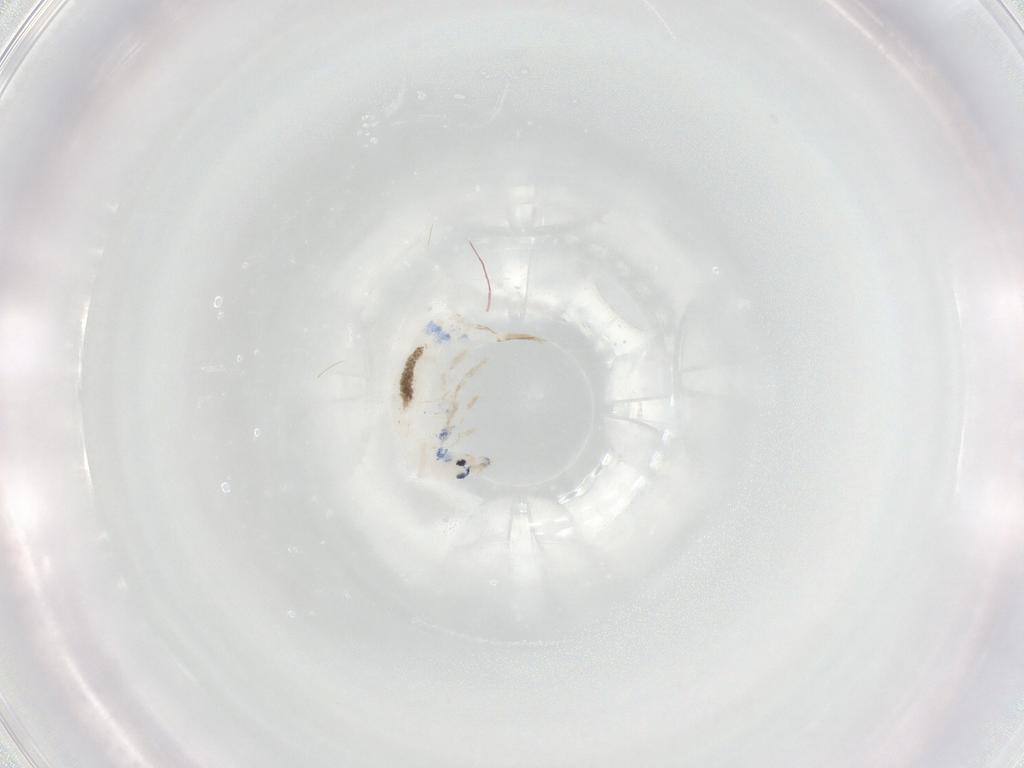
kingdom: Animalia
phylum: Arthropoda
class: Collembola
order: Entomobryomorpha
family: Entomobryidae
